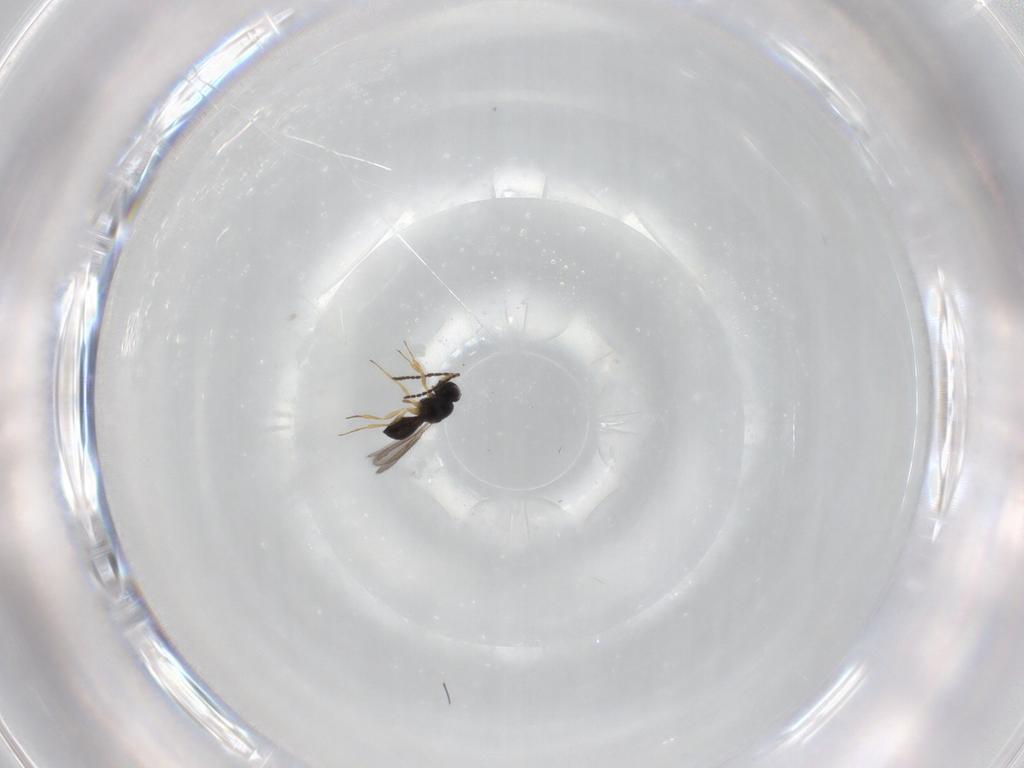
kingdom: Animalia
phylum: Arthropoda
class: Insecta
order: Hymenoptera
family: Scelionidae
